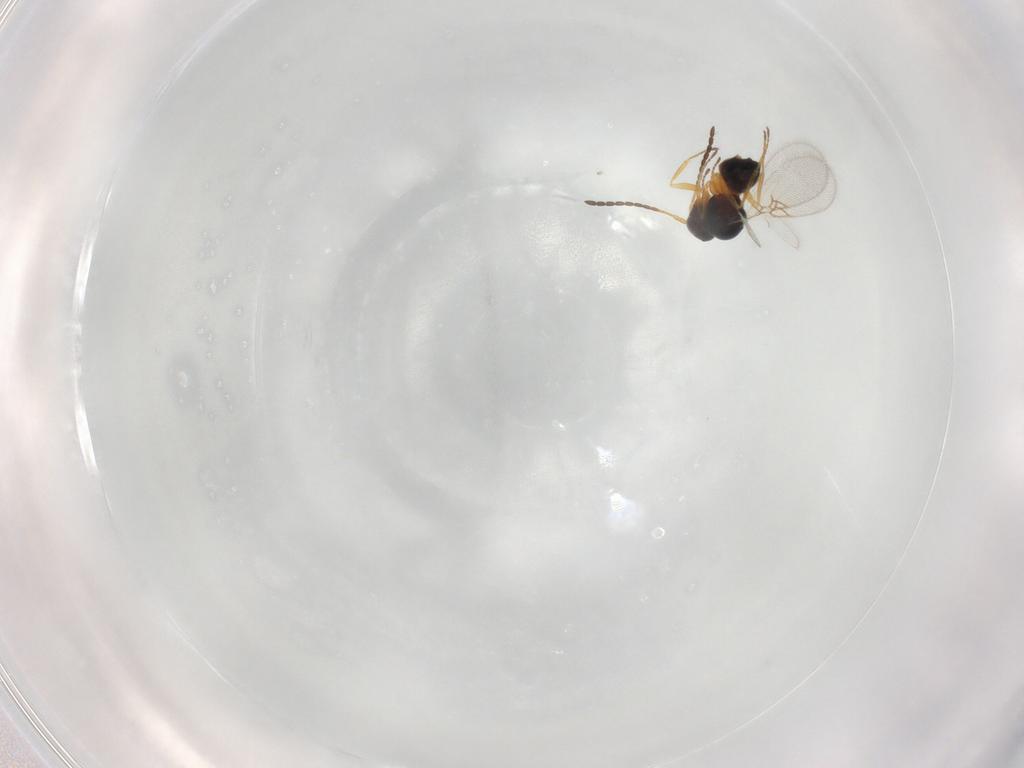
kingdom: Animalia
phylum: Arthropoda
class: Insecta
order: Hymenoptera
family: Figitidae
